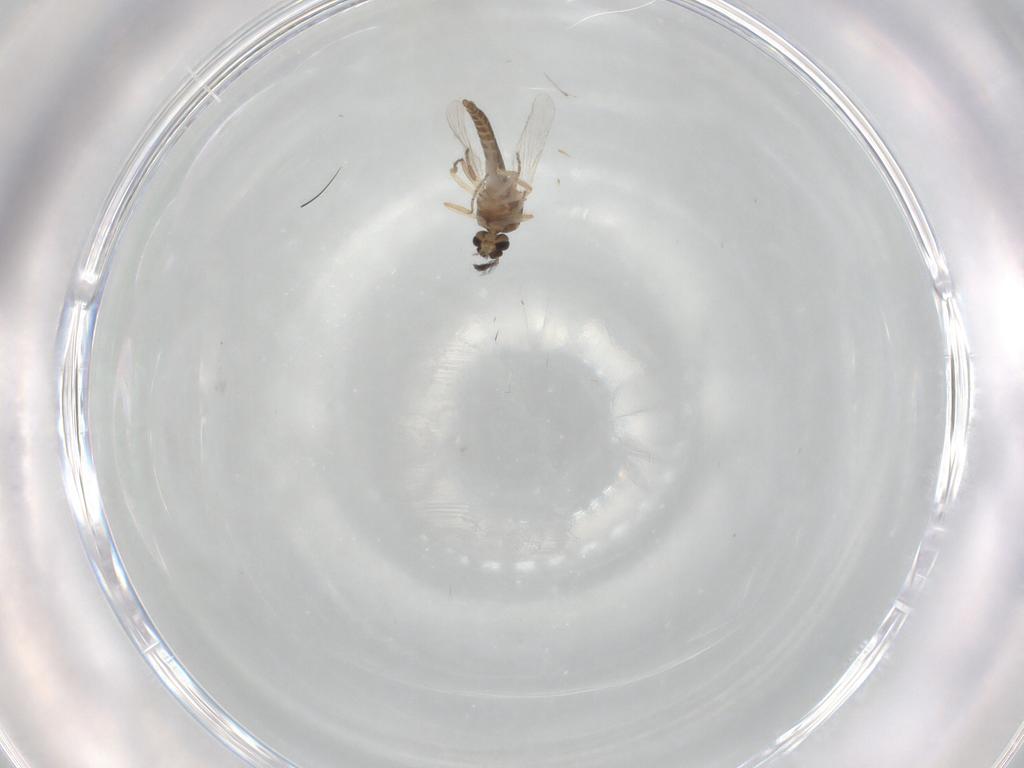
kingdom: Animalia
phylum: Arthropoda
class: Insecta
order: Diptera
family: Ceratopogonidae
